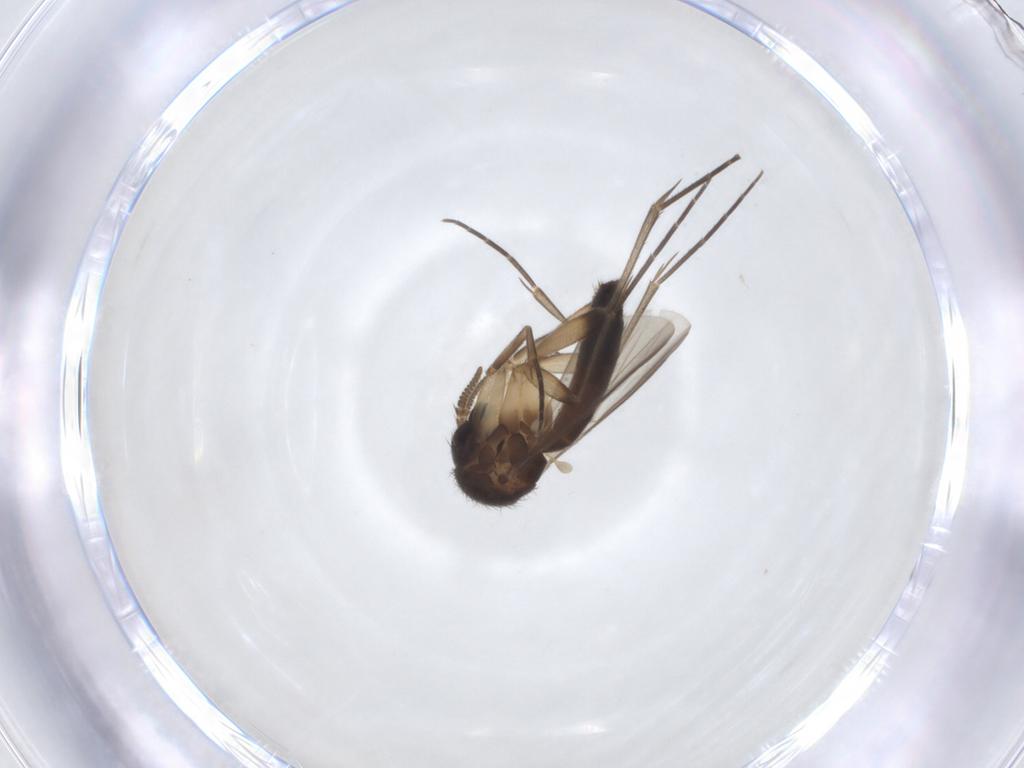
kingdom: Animalia
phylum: Arthropoda
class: Insecta
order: Diptera
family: Mycetophilidae
